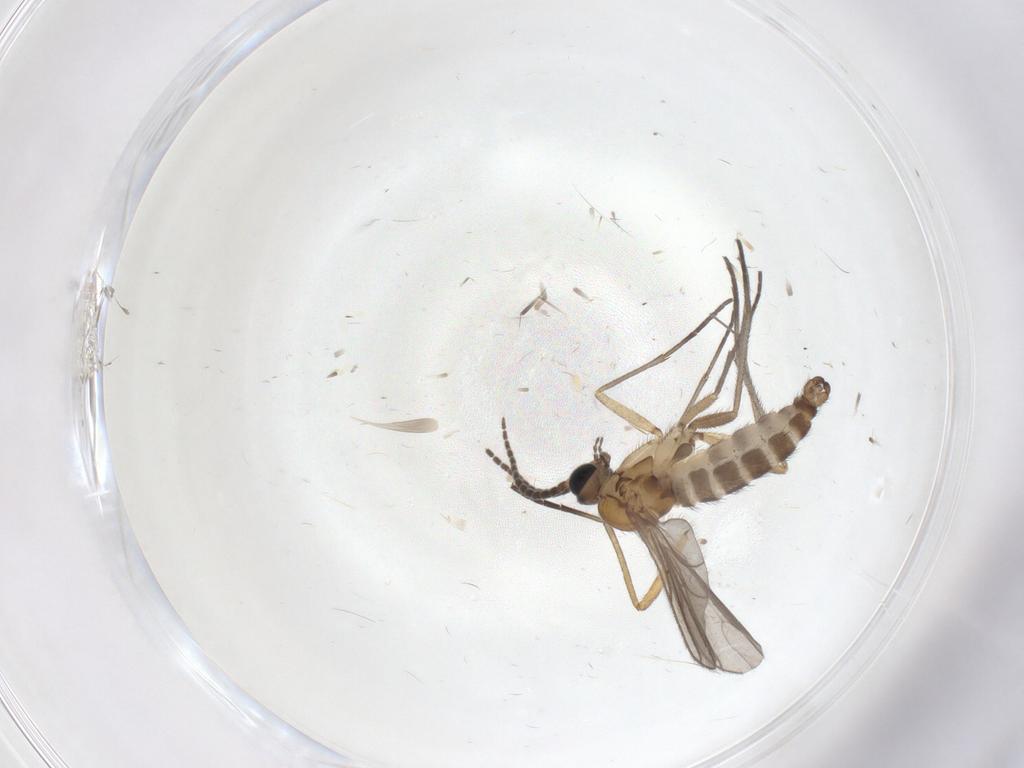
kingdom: Animalia
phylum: Arthropoda
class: Insecta
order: Diptera
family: Sciaridae
